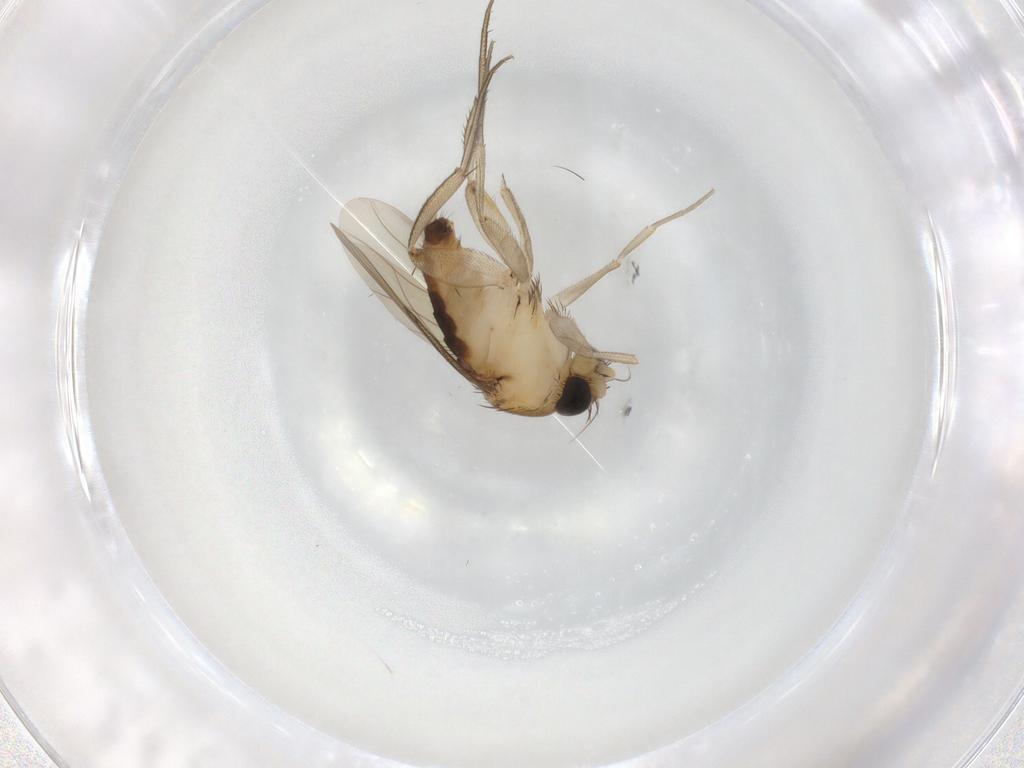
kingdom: Animalia
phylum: Arthropoda
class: Insecta
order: Diptera
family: Phoridae
